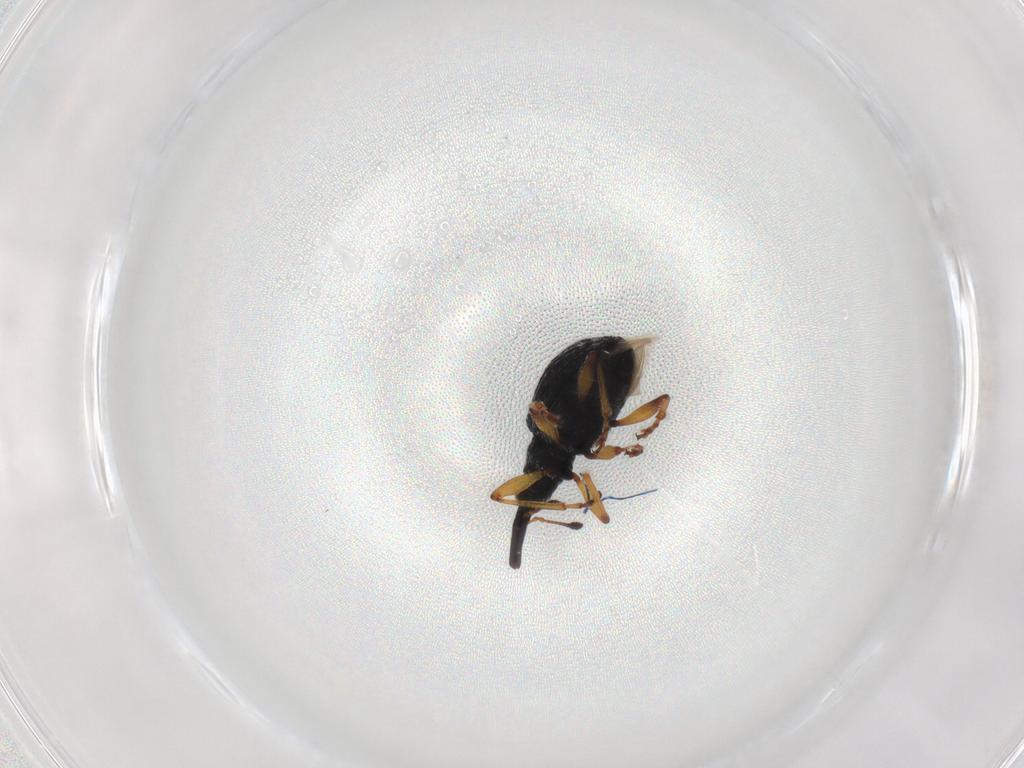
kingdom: Animalia
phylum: Arthropoda
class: Insecta
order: Coleoptera
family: Brentidae
